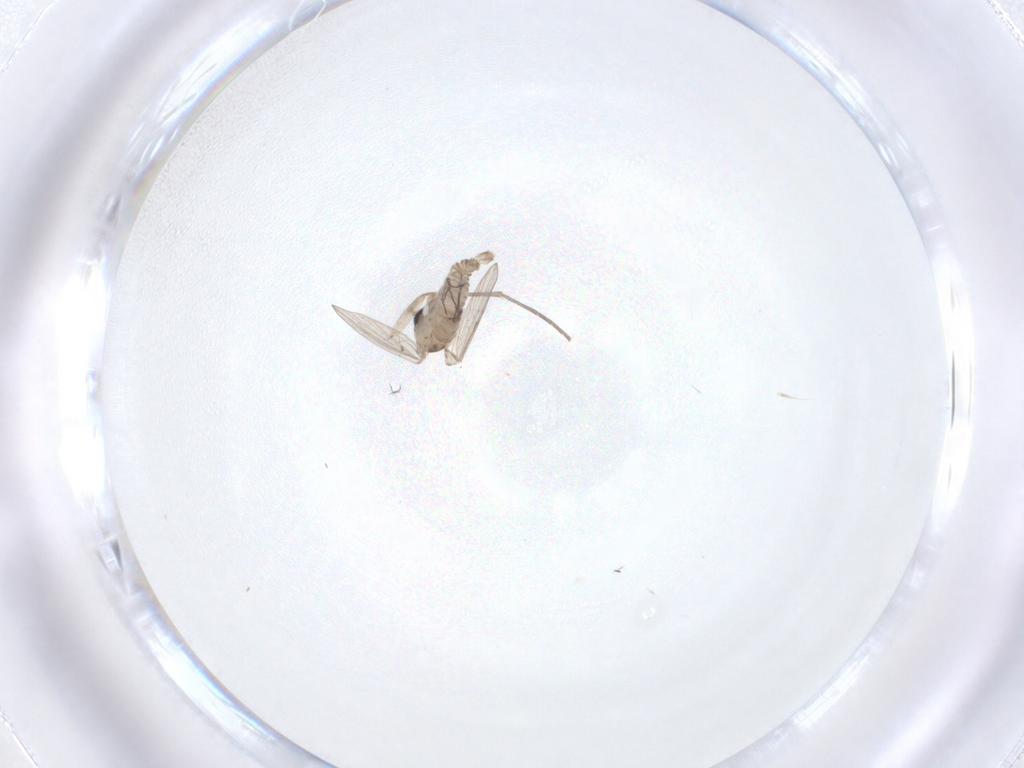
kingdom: Animalia
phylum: Arthropoda
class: Insecta
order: Diptera
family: Psychodidae
